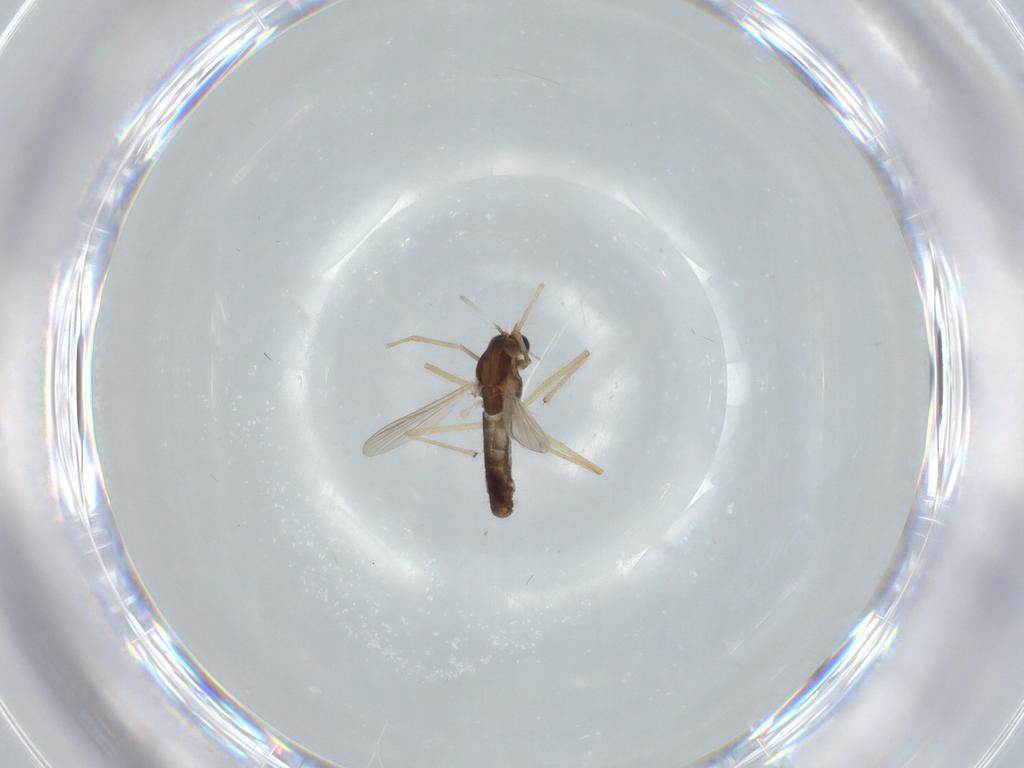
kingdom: Animalia
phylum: Arthropoda
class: Insecta
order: Diptera
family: Chironomidae
